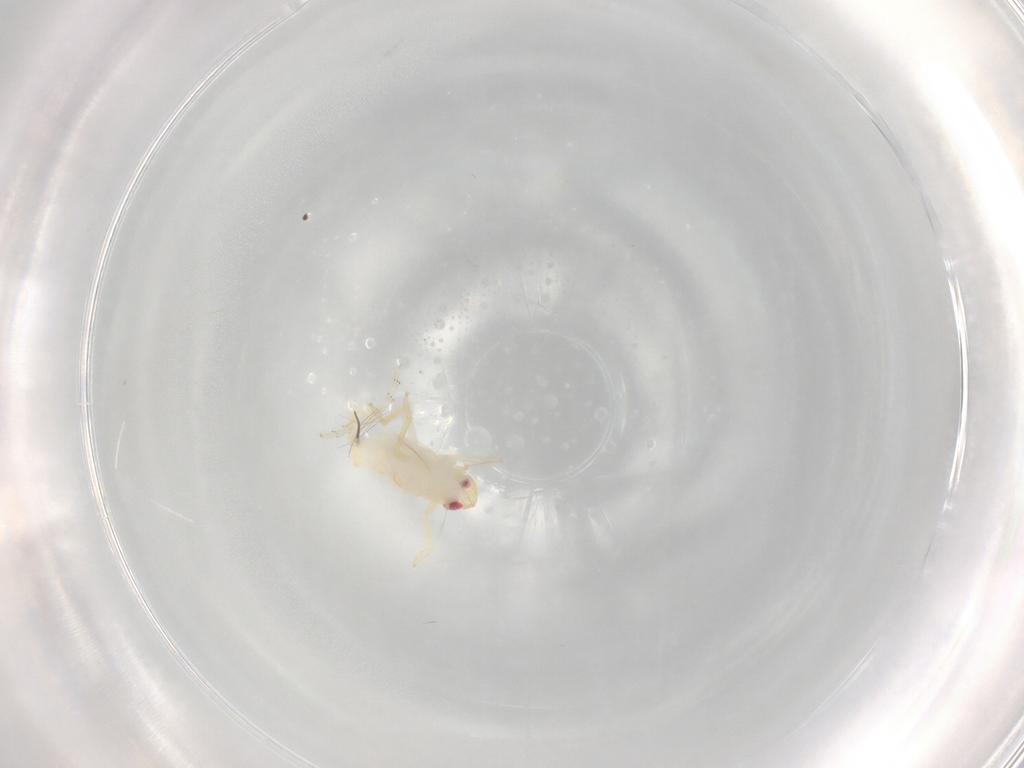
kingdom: Animalia
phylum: Arthropoda
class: Insecta
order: Hemiptera
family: Tropiduchidae
